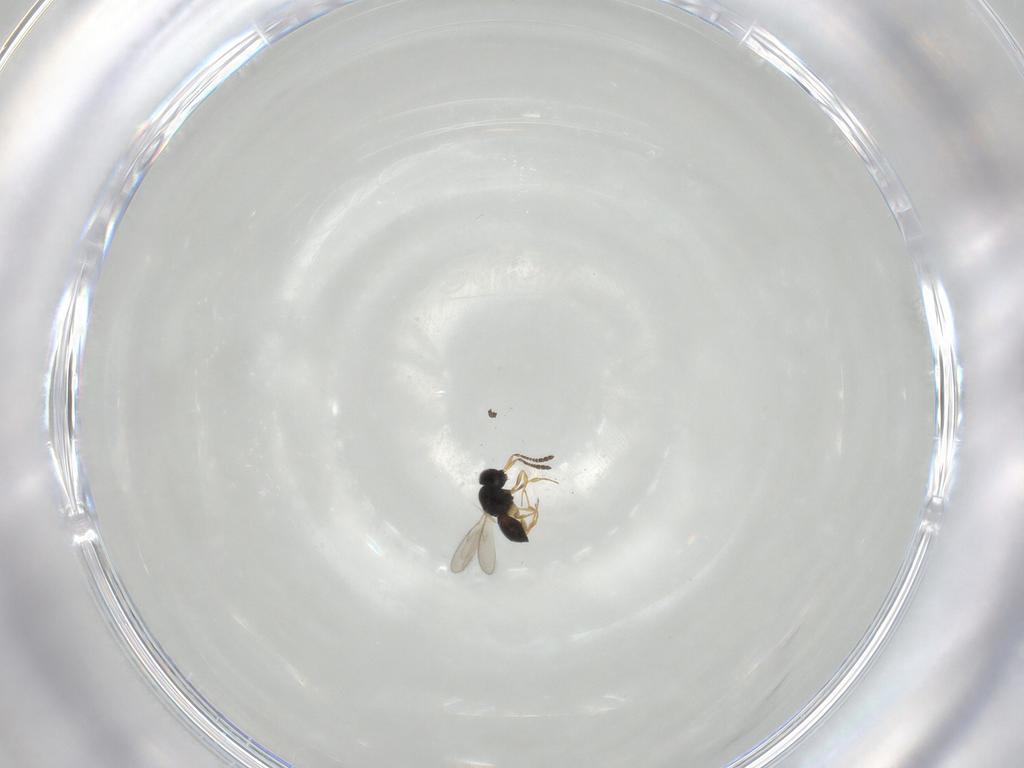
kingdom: Animalia
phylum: Arthropoda
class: Insecta
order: Hymenoptera
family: Scelionidae
